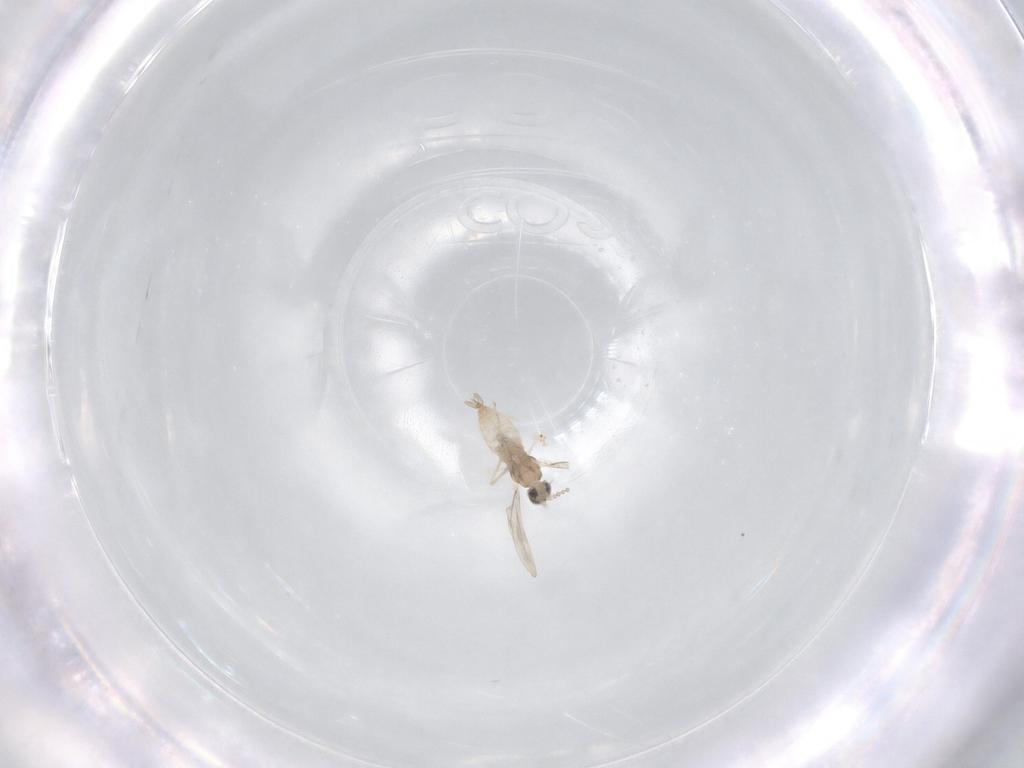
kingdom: Animalia
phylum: Arthropoda
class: Insecta
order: Diptera
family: Cecidomyiidae
